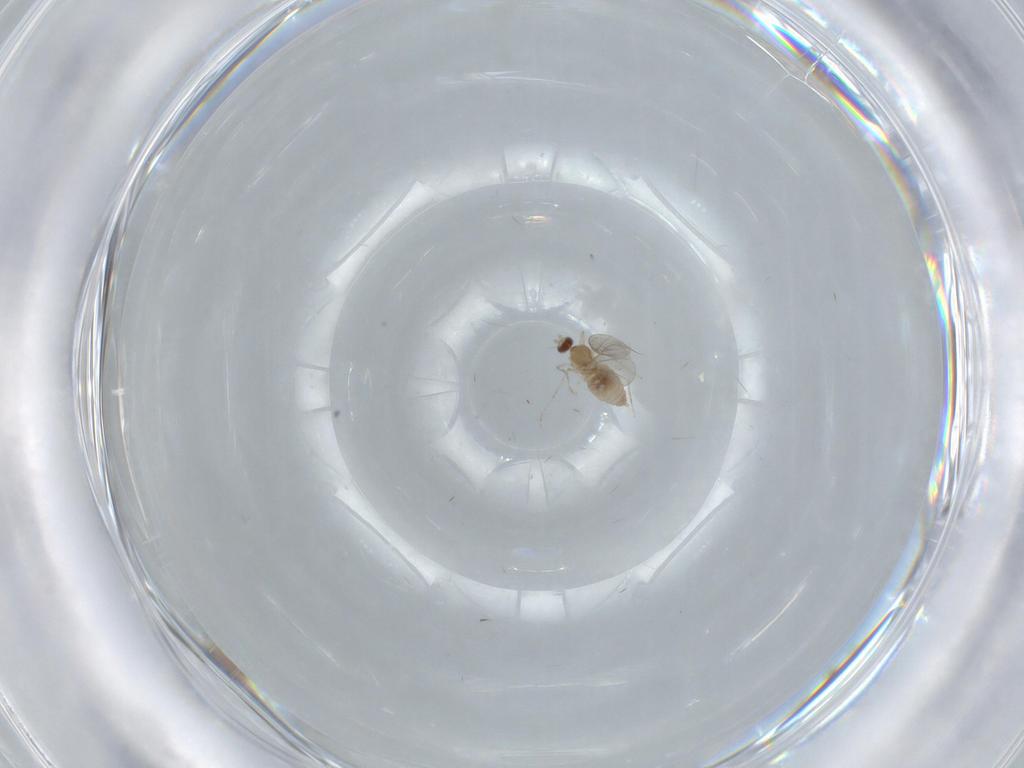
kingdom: Animalia
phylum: Arthropoda
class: Insecta
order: Diptera
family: Cecidomyiidae
